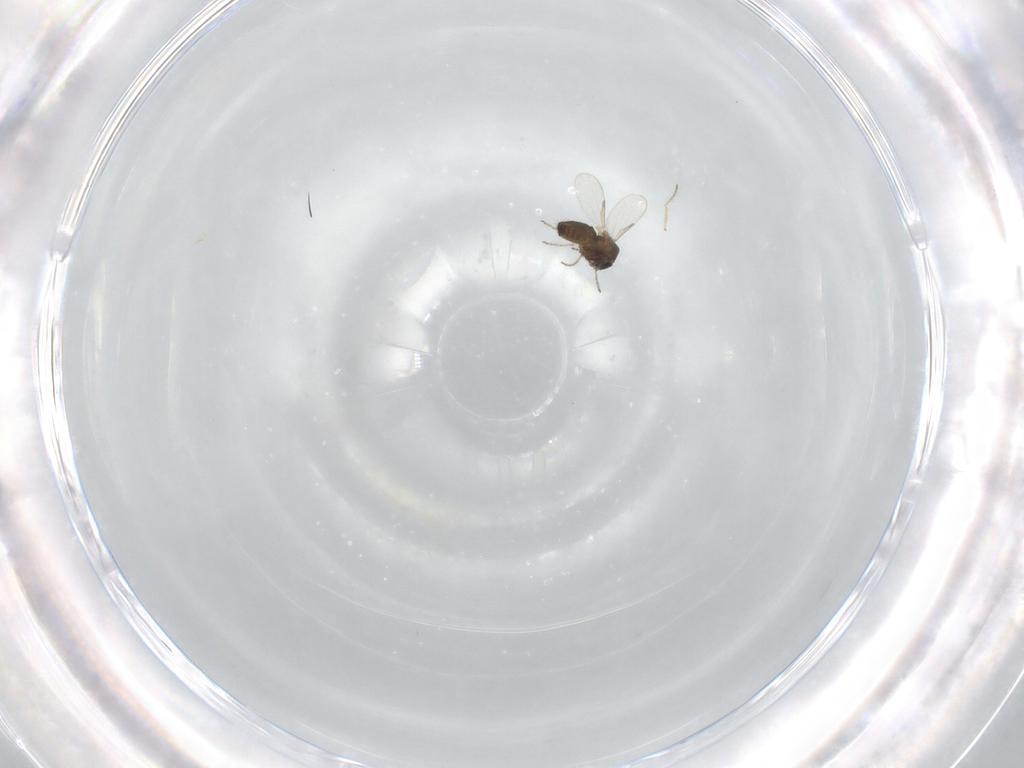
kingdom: Animalia
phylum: Arthropoda
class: Insecta
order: Diptera
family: Ceratopogonidae
